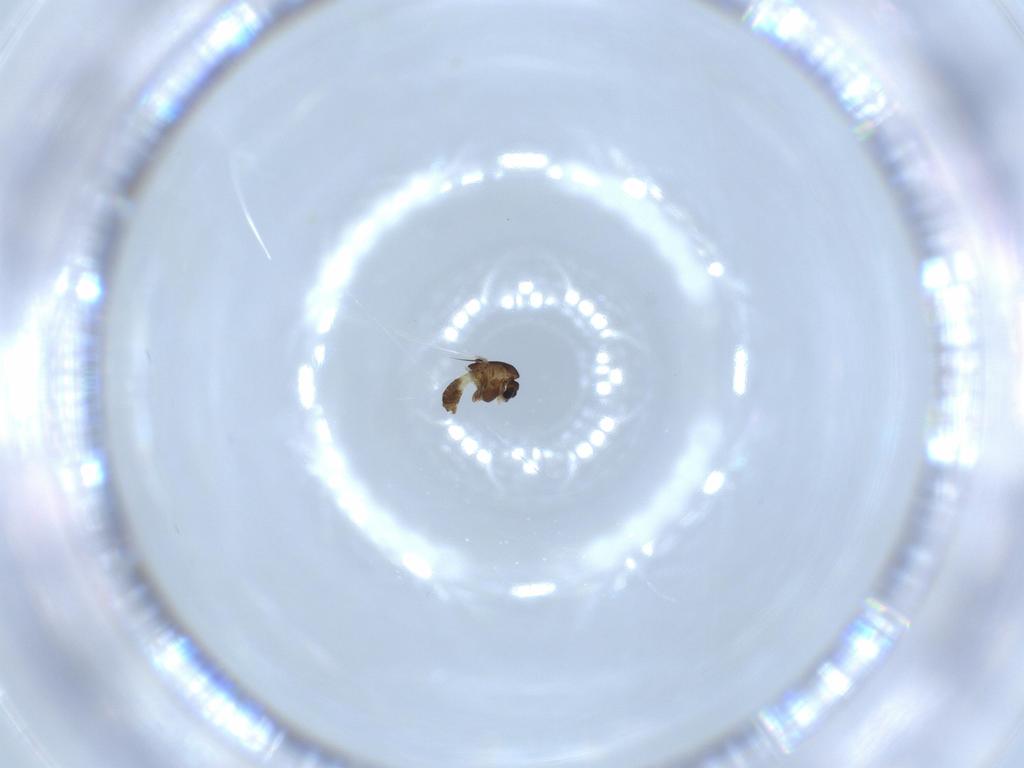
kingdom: Animalia
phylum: Arthropoda
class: Insecta
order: Diptera
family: Chironomidae
